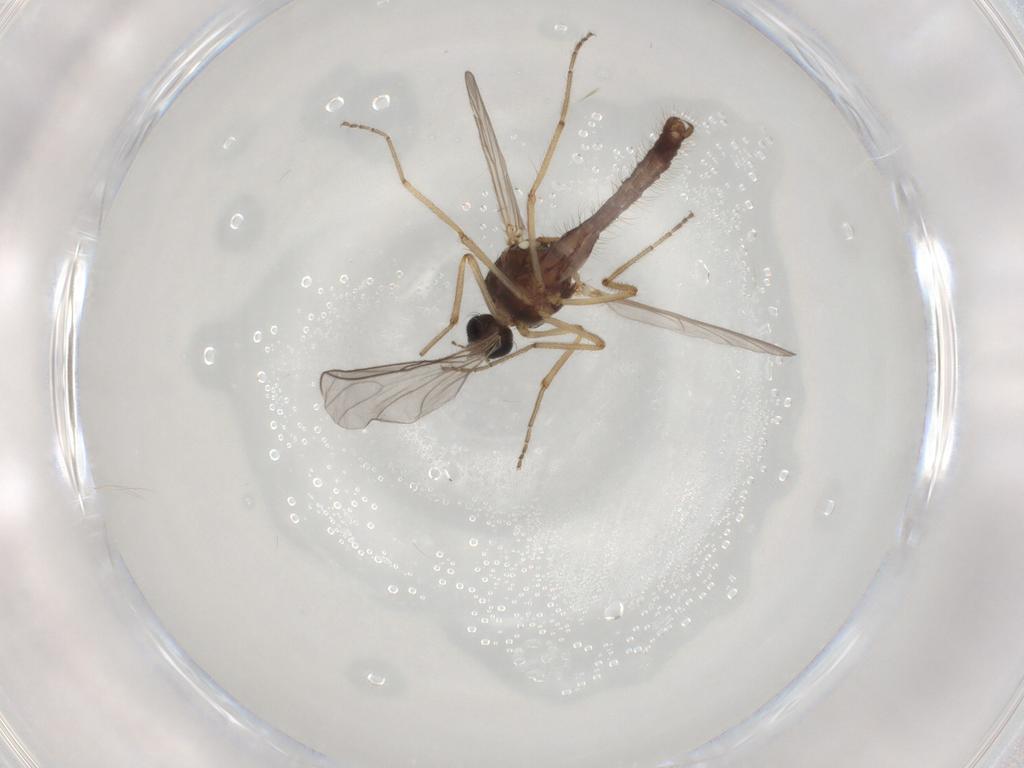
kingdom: Animalia
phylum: Arthropoda
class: Insecta
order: Diptera
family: Ceratopogonidae
